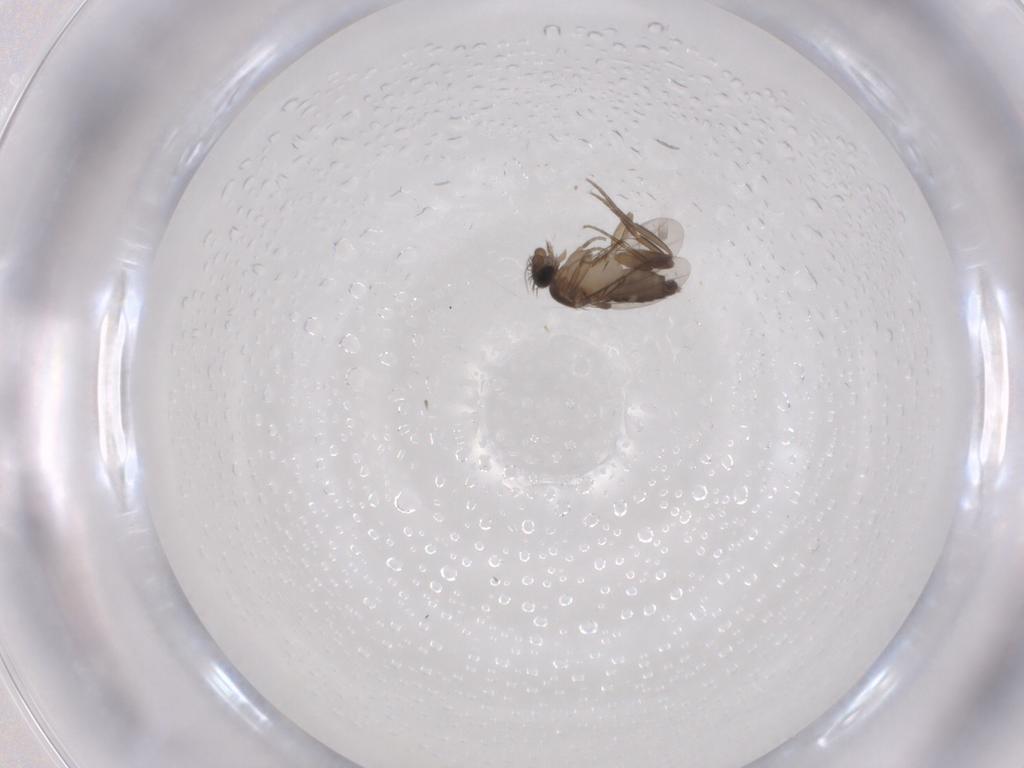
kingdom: Animalia
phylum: Arthropoda
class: Insecta
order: Diptera
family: Phoridae
